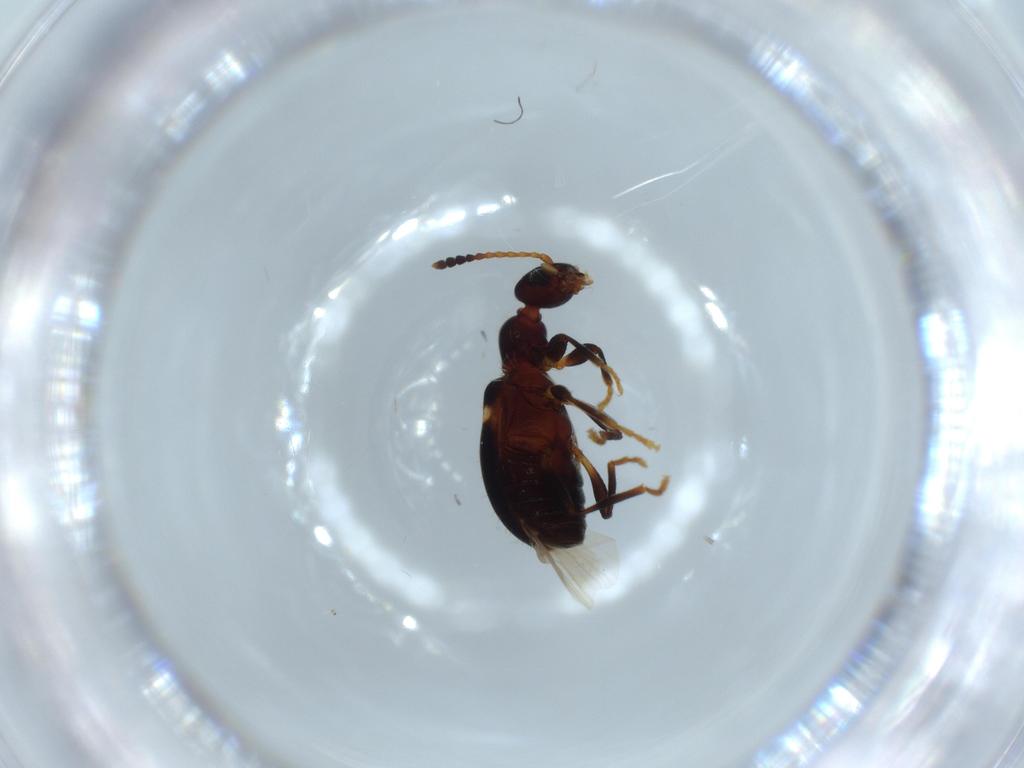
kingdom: Animalia
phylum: Arthropoda
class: Insecta
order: Coleoptera
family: Anthicidae
